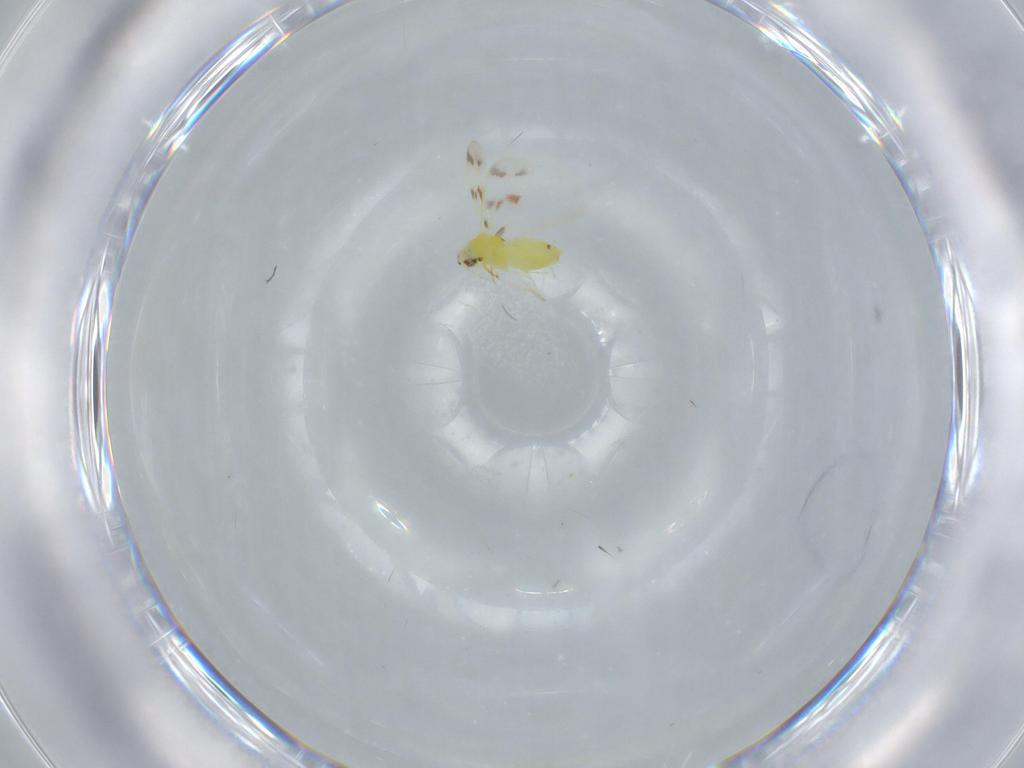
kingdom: Animalia
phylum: Arthropoda
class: Insecta
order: Hemiptera
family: Aleyrodidae
